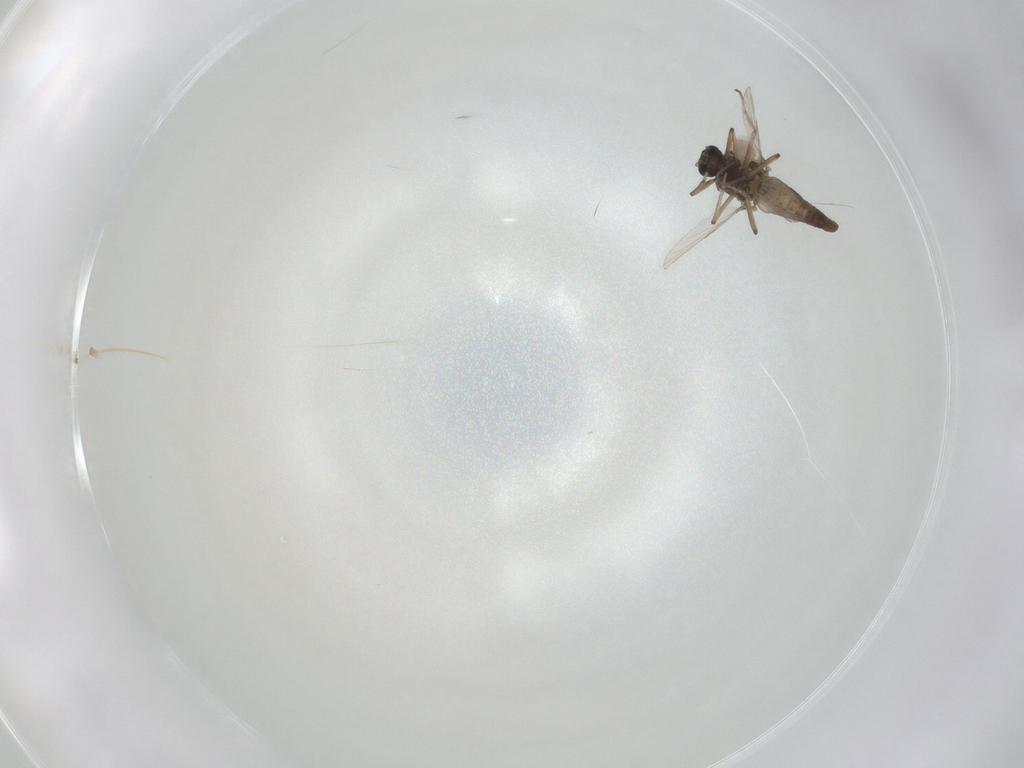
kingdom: Animalia
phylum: Arthropoda
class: Insecta
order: Diptera
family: Ceratopogonidae
